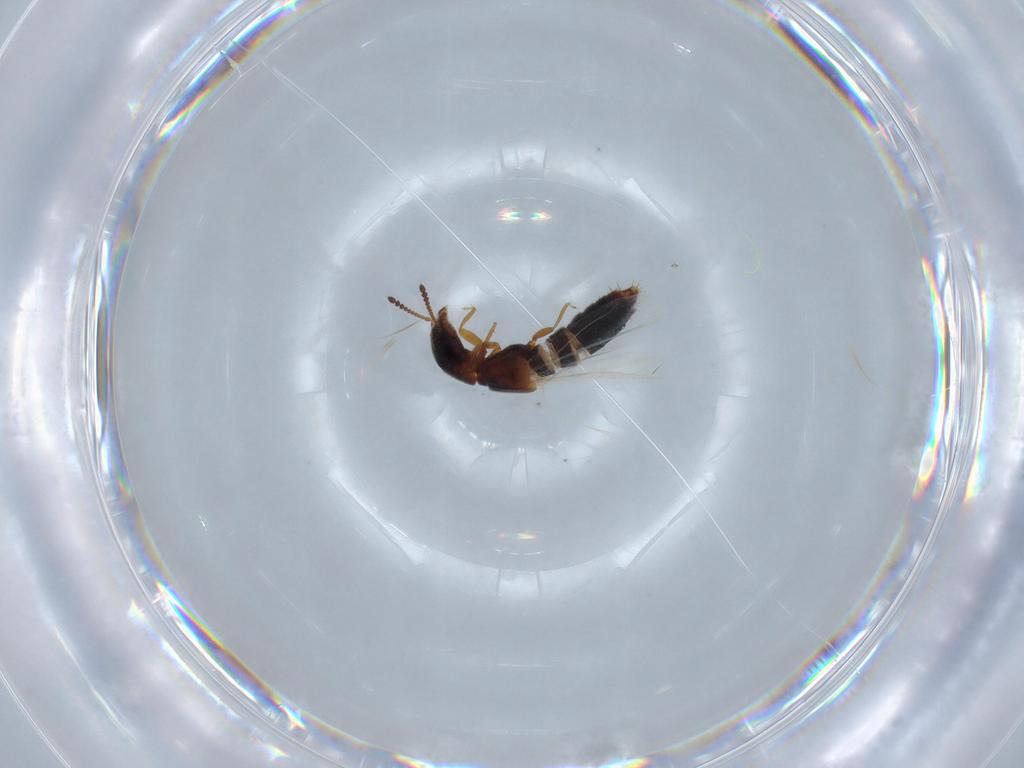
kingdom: Animalia
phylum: Arthropoda
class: Insecta
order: Coleoptera
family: Staphylinidae
